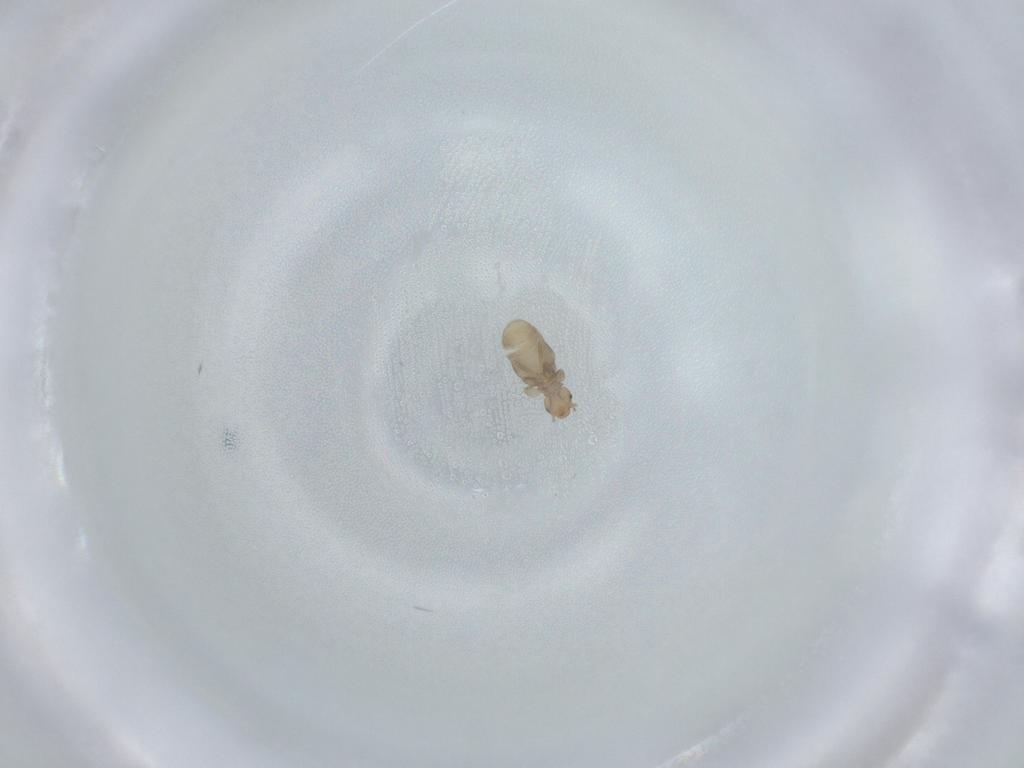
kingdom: Animalia
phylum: Arthropoda
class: Insecta
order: Psocodea
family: Liposcelididae
